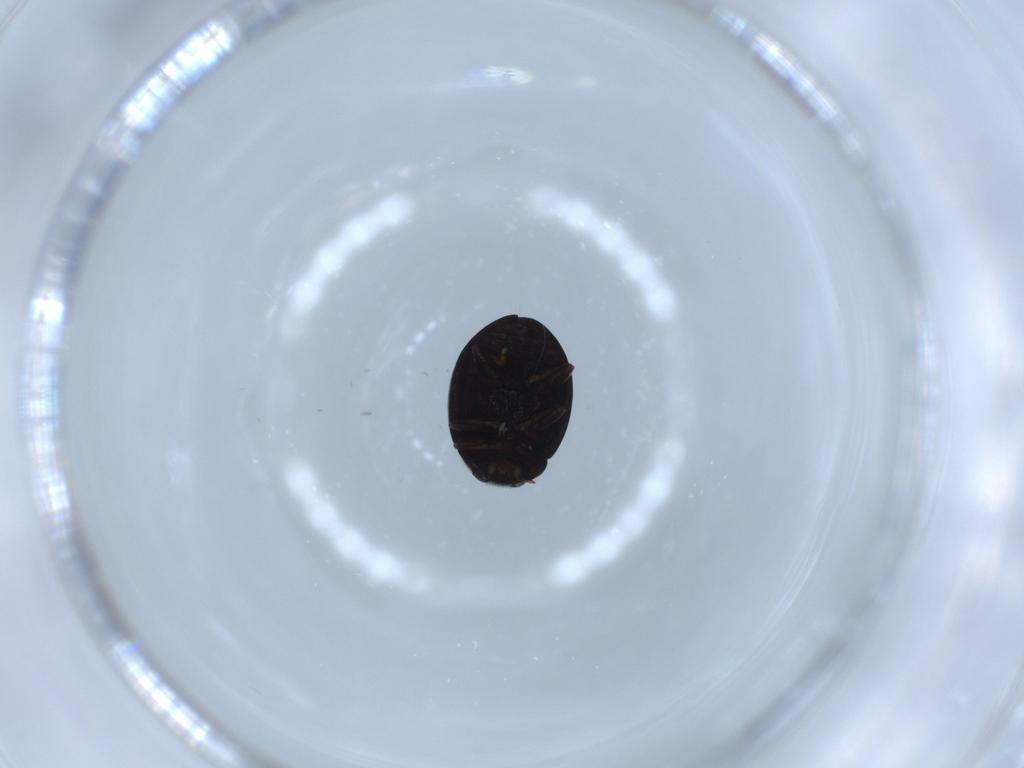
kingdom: Animalia
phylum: Arthropoda
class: Insecta
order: Coleoptera
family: Coccinellidae
